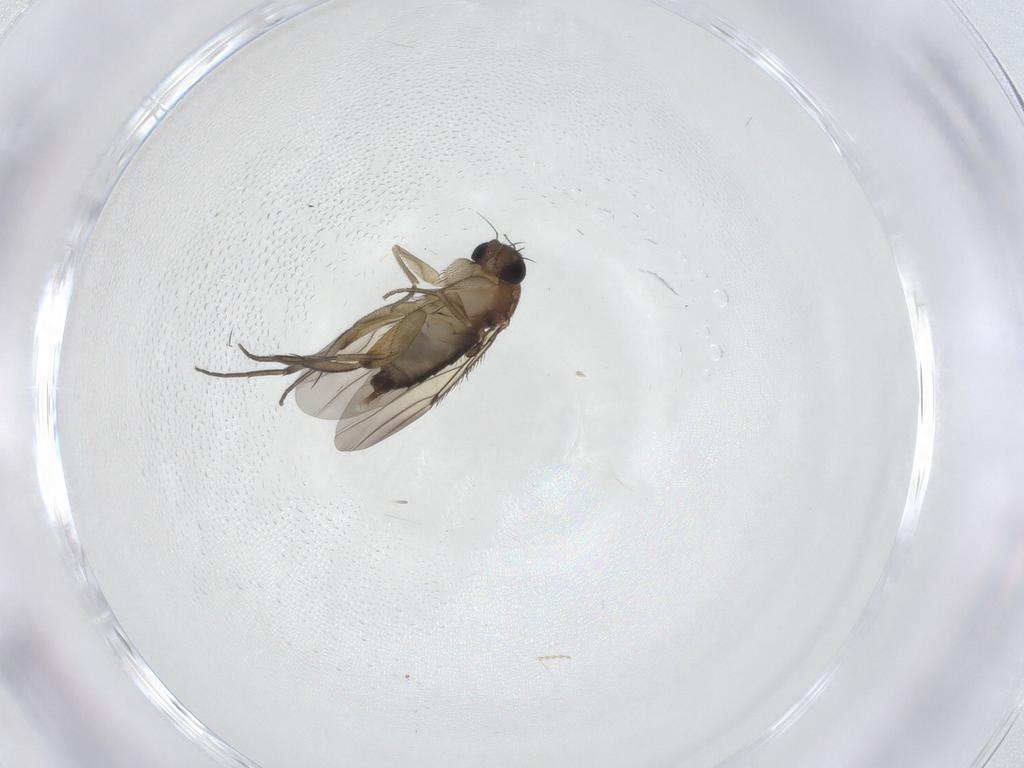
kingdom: Animalia
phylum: Arthropoda
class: Insecta
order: Diptera
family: Phoridae
